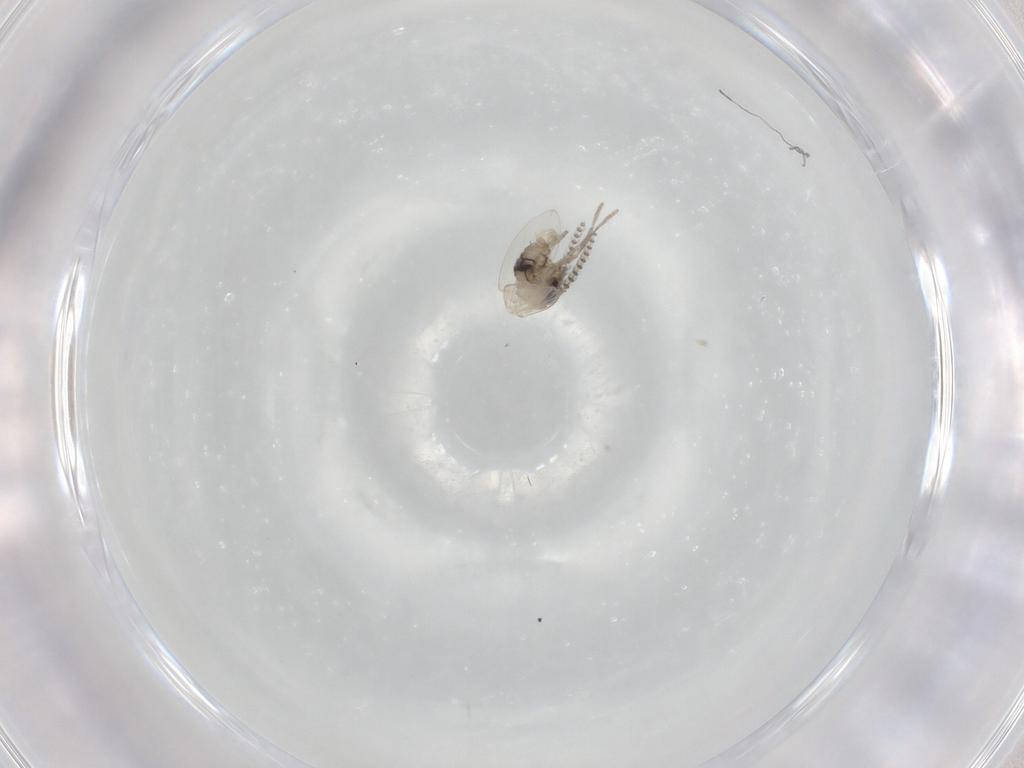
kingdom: Animalia
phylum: Arthropoda
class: Insecta
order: Diptera
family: Psychodidae
